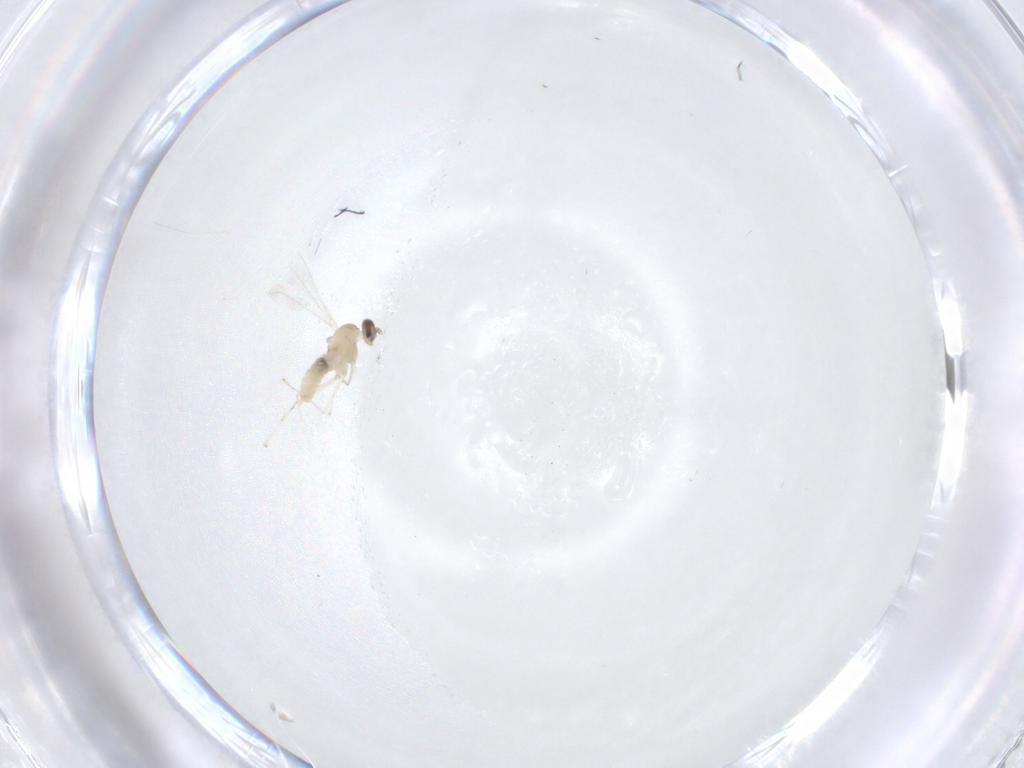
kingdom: Animalia
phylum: Arthropoda
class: Insecta
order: Diptera
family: Cecidomyiidae
